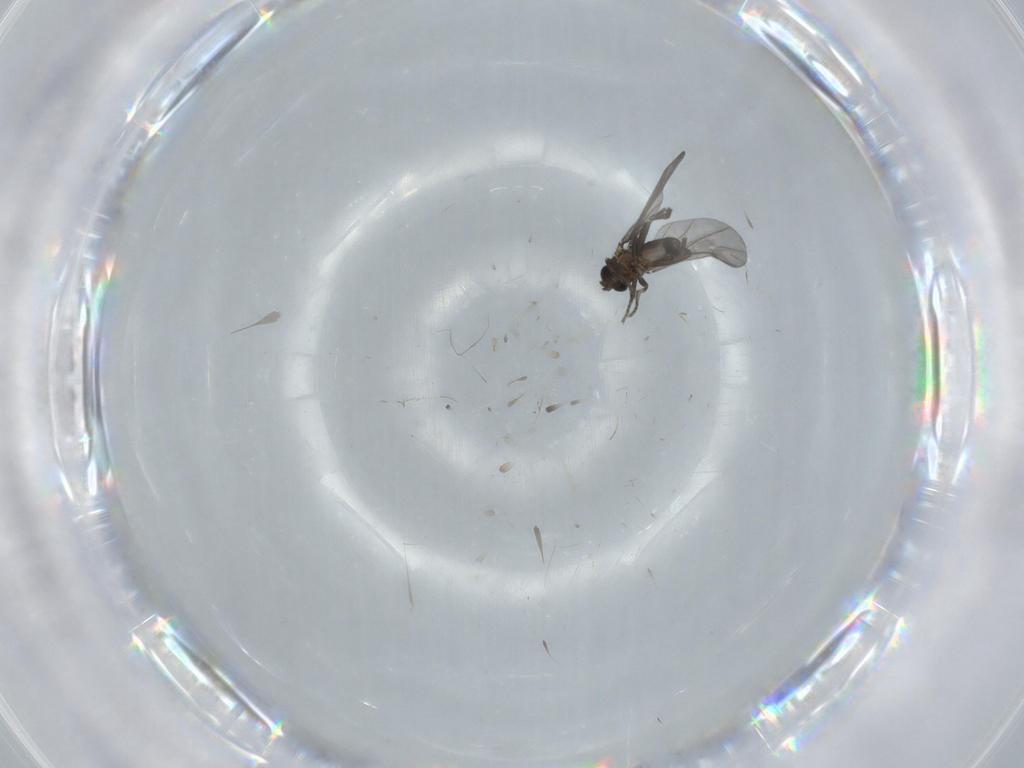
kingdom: Animalia
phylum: Arthropoda
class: Insecta
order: Diptera
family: Phoridae
